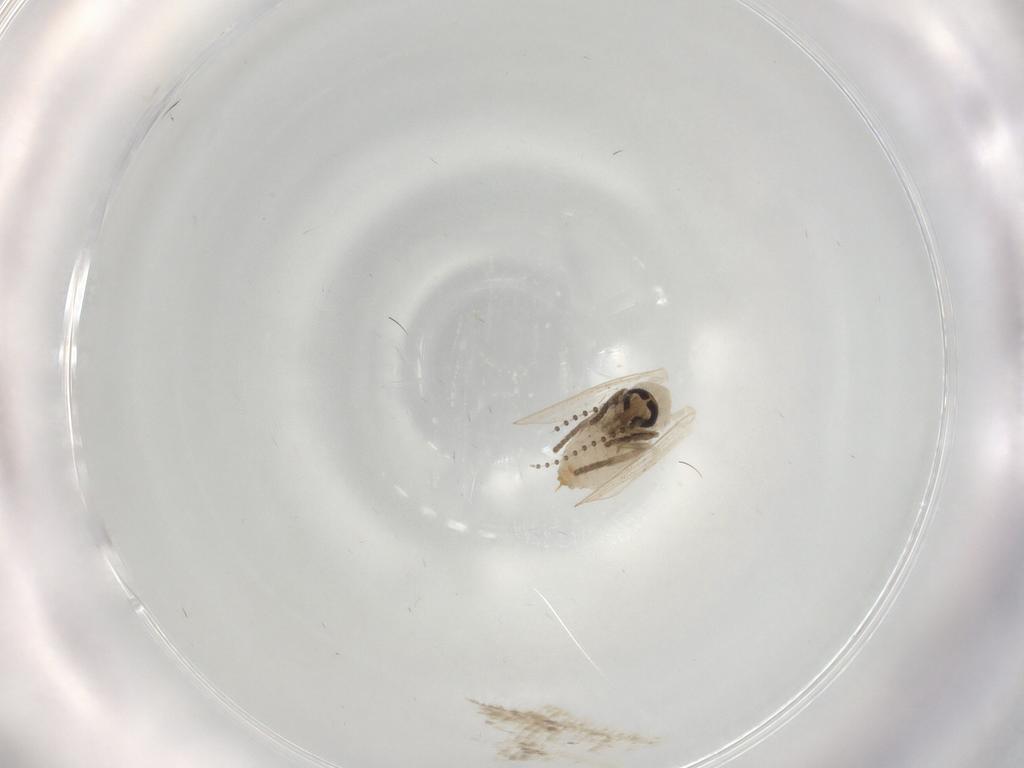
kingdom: Animalia
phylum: Arthropoda
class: Insecta
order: Diptera
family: Psychodidae
